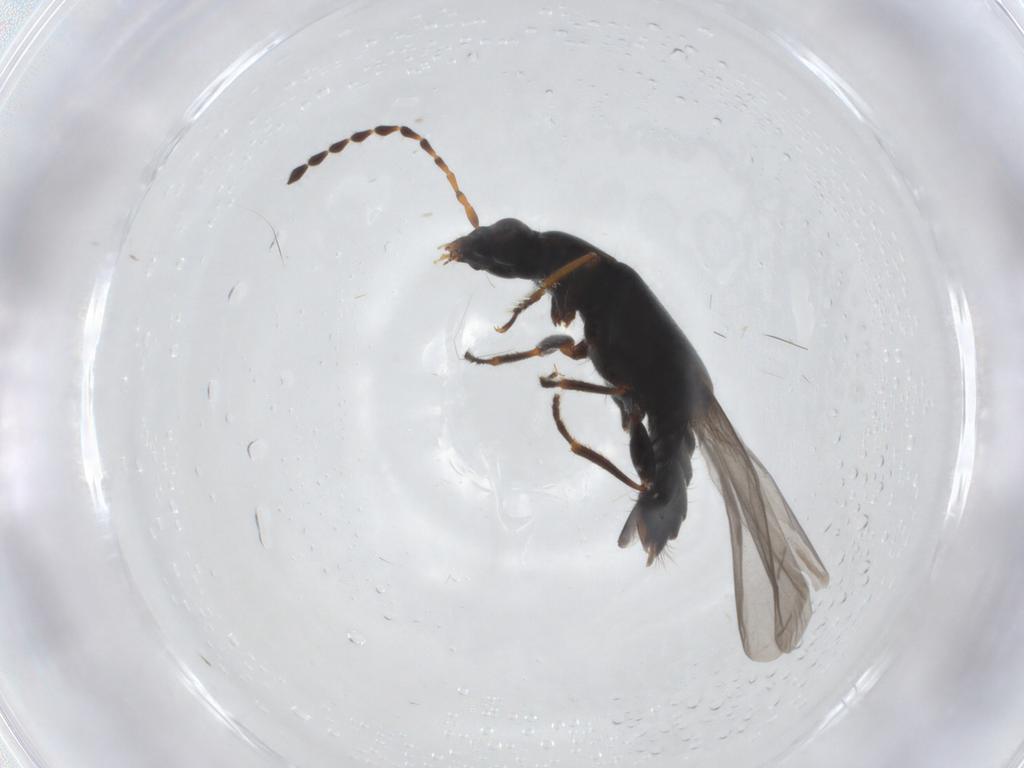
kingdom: Animalia
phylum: Arthropoda
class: Insecta
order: Coleoptera
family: Staphylinidae
